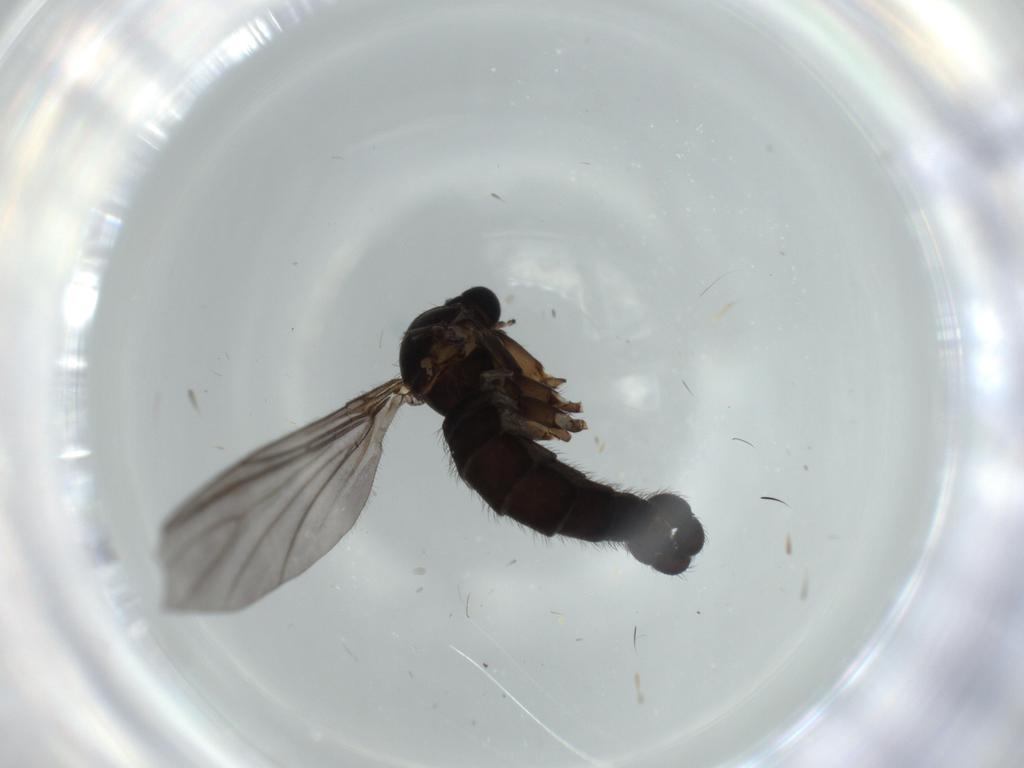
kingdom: Animalia
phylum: Arthropoda
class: Insecta
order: Diptera
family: Sciaridae
